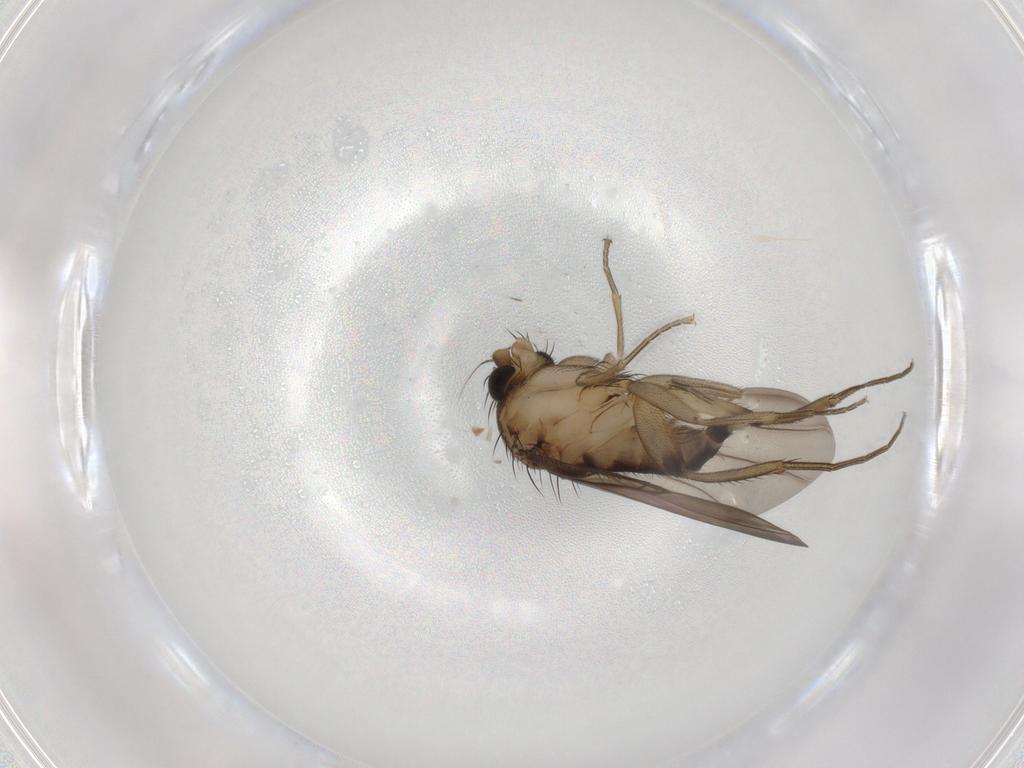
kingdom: Animalia
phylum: Arthropoda
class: Insecta
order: Diptera
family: Phoridae
